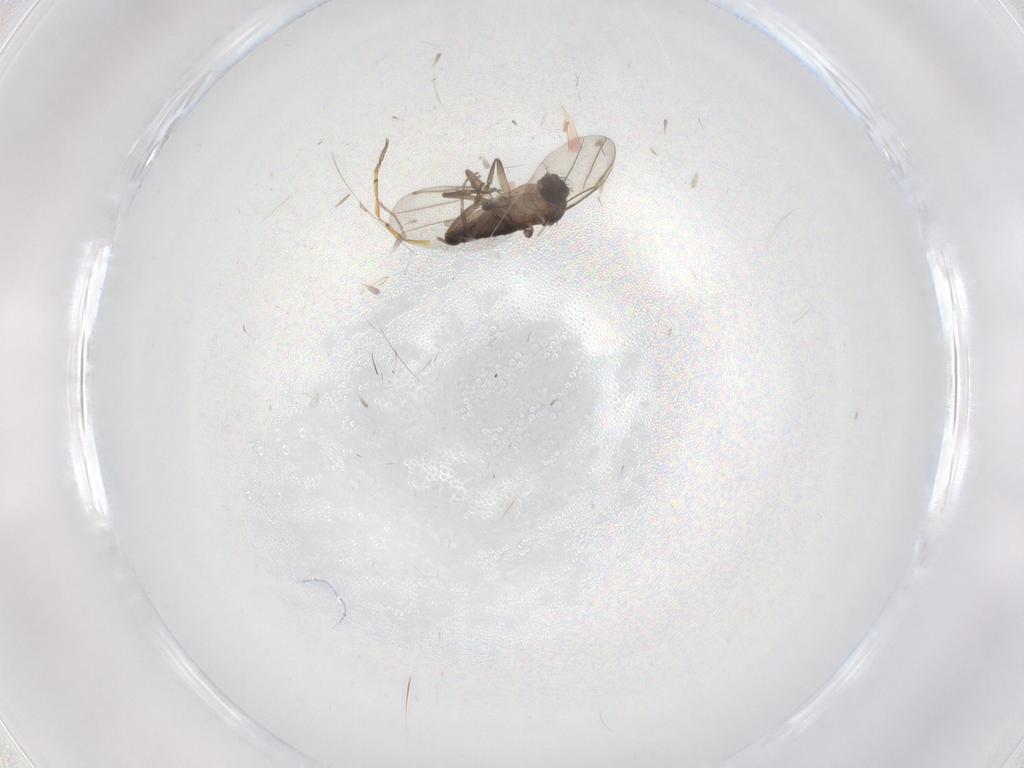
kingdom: Animalia
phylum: Arthropoda
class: Insecta
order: Diptera
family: Phoridae
